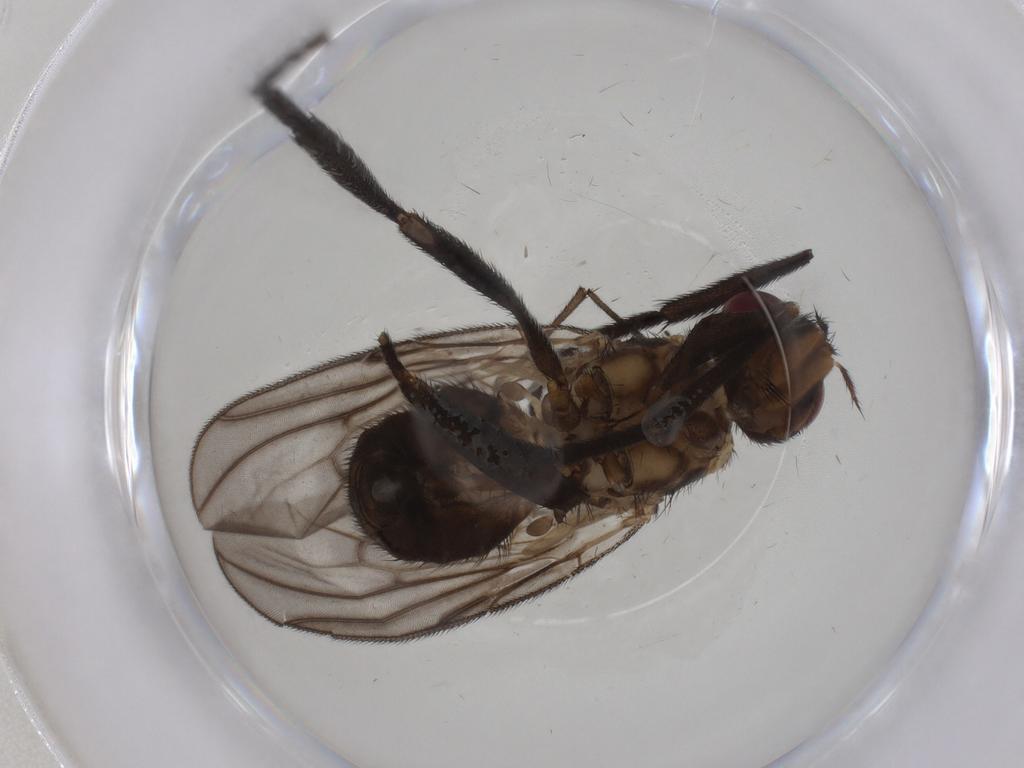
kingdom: Animalia
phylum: Arthropoda
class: Insecta
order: Diptera
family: Calliphoridae
